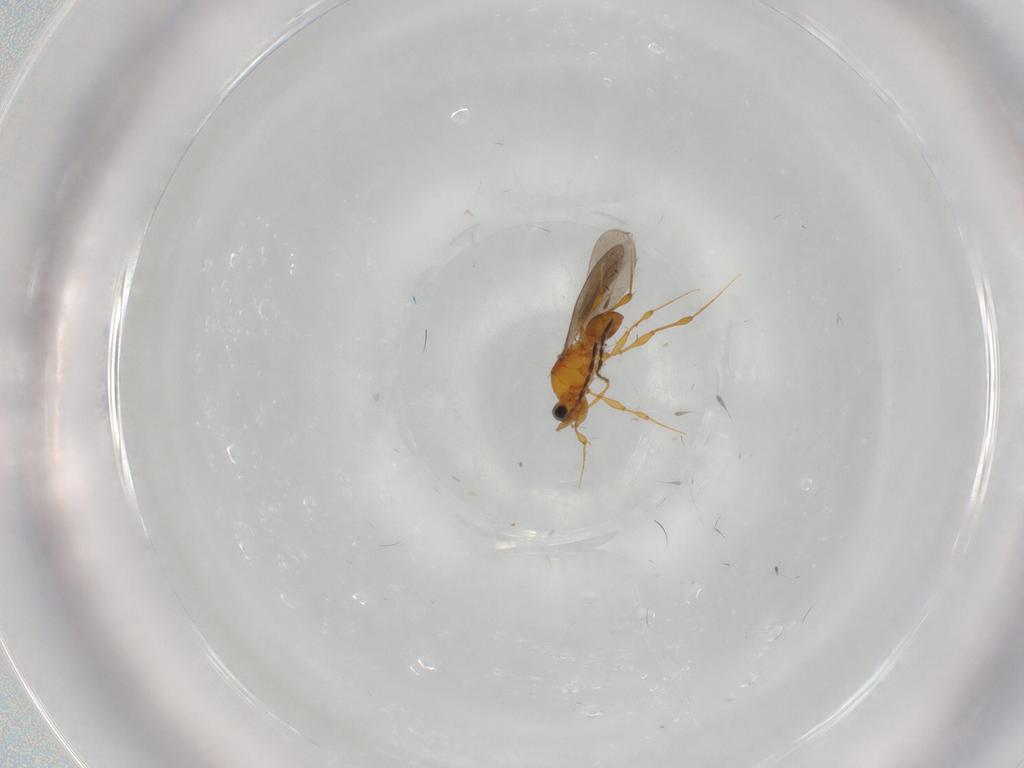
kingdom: Animalia
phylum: Arthropoda
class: Insecta
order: Hymenoptera
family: Platygastridae
